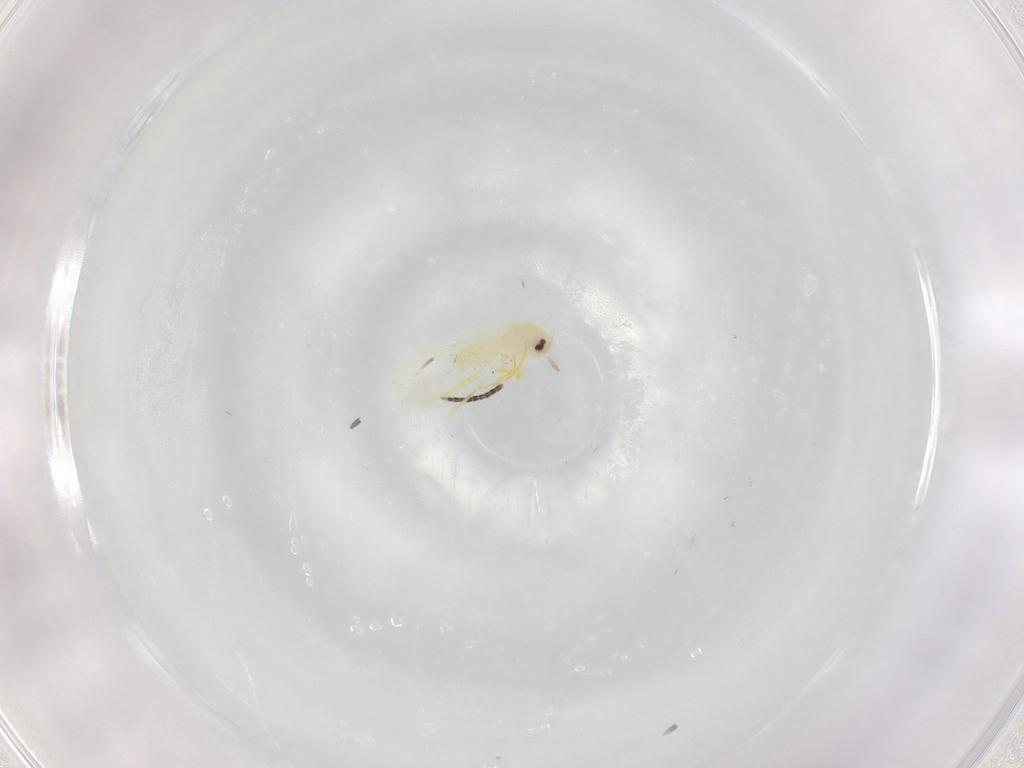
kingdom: Animalia
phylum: Arthropoda
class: Insecta
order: Hemiptera
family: Aleyrodidae
